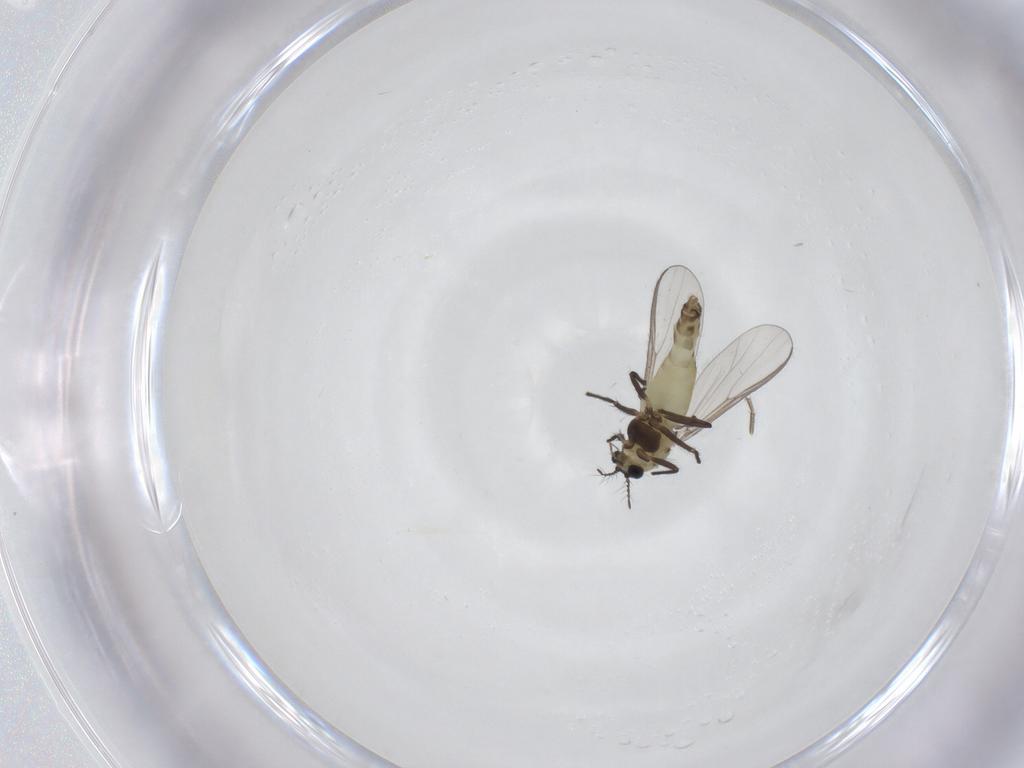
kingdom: Animalia
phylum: Arthropoda
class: Insecta
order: Diptera
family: Chironomidae
